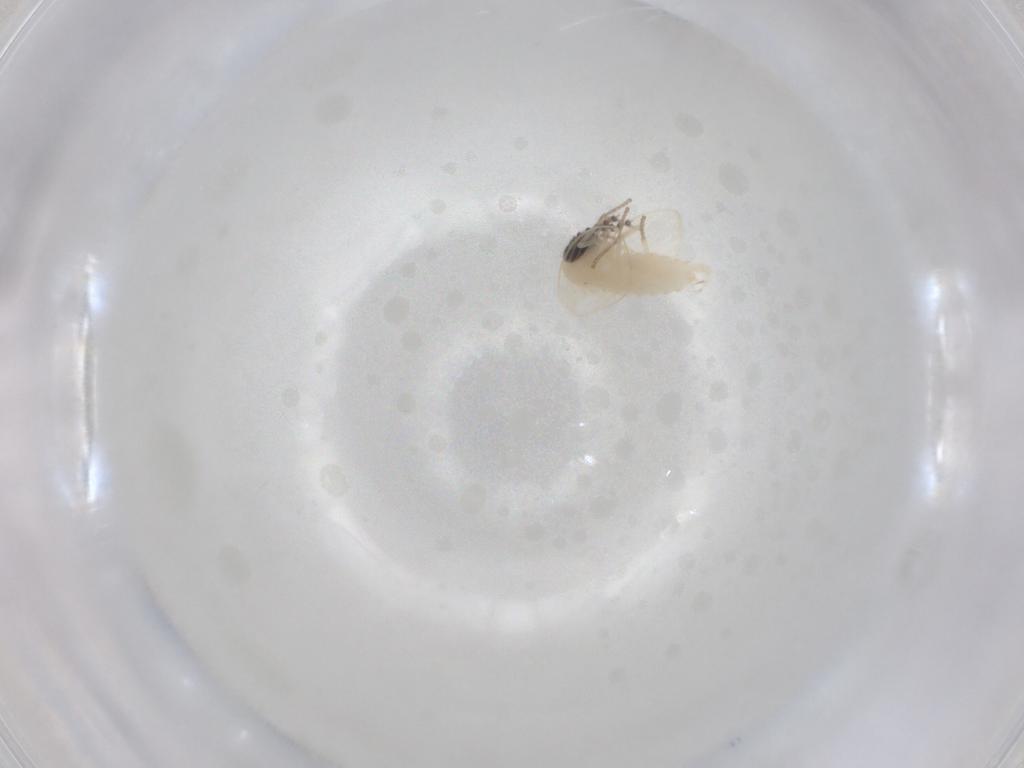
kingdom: Animalia
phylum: Arthropoda
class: Insecta
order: Diptera
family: Psychodidae
